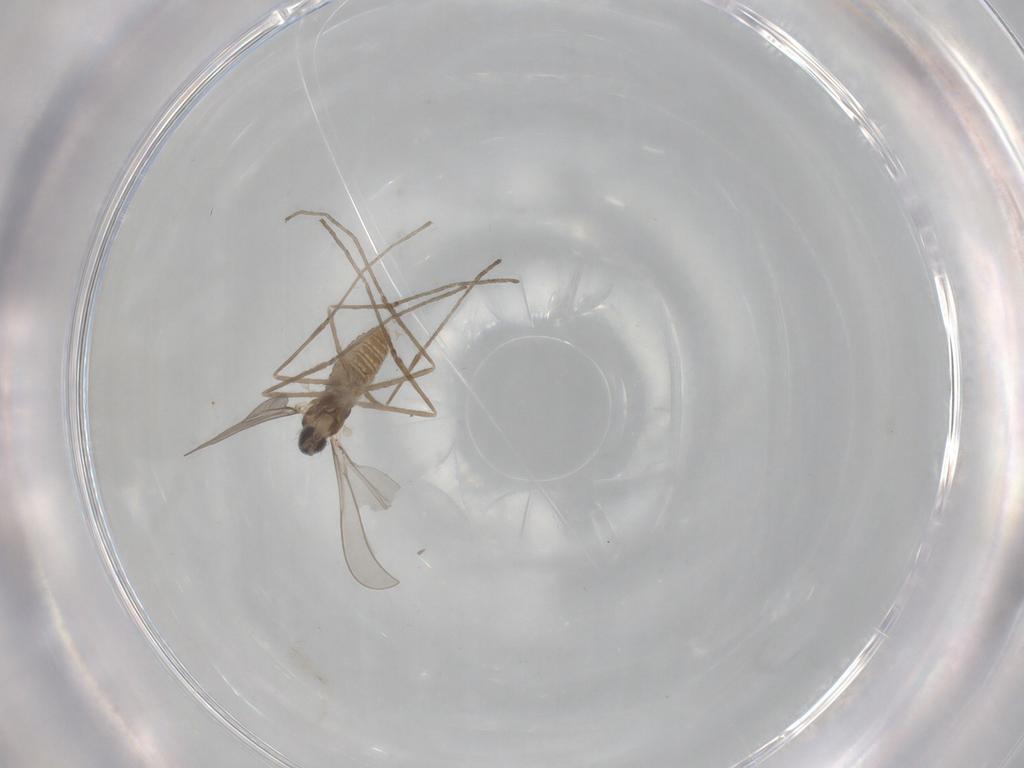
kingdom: Animalia
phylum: Arthropoda
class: Insecta
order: Diptera
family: Cecidomyiidae
